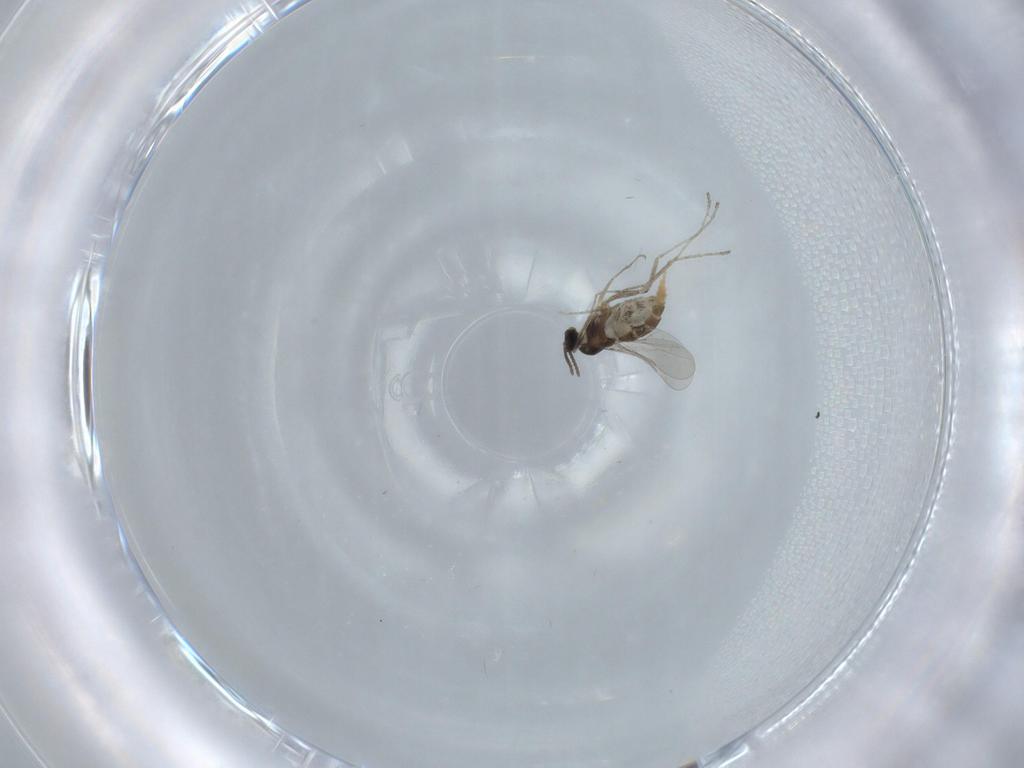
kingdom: Animalia
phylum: Arthropoda
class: Insecta
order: Diptera
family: Cecidomyiidae
